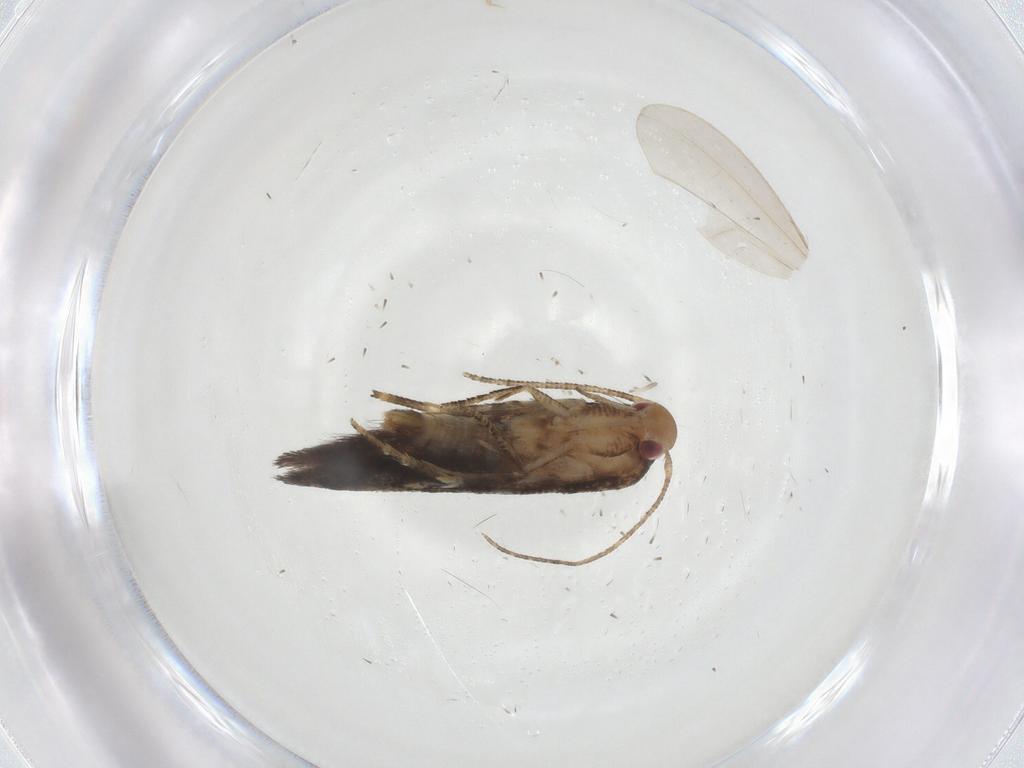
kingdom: Animalia
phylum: Arthropoda
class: Insecta
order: Lepidoptera
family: Momphidae
